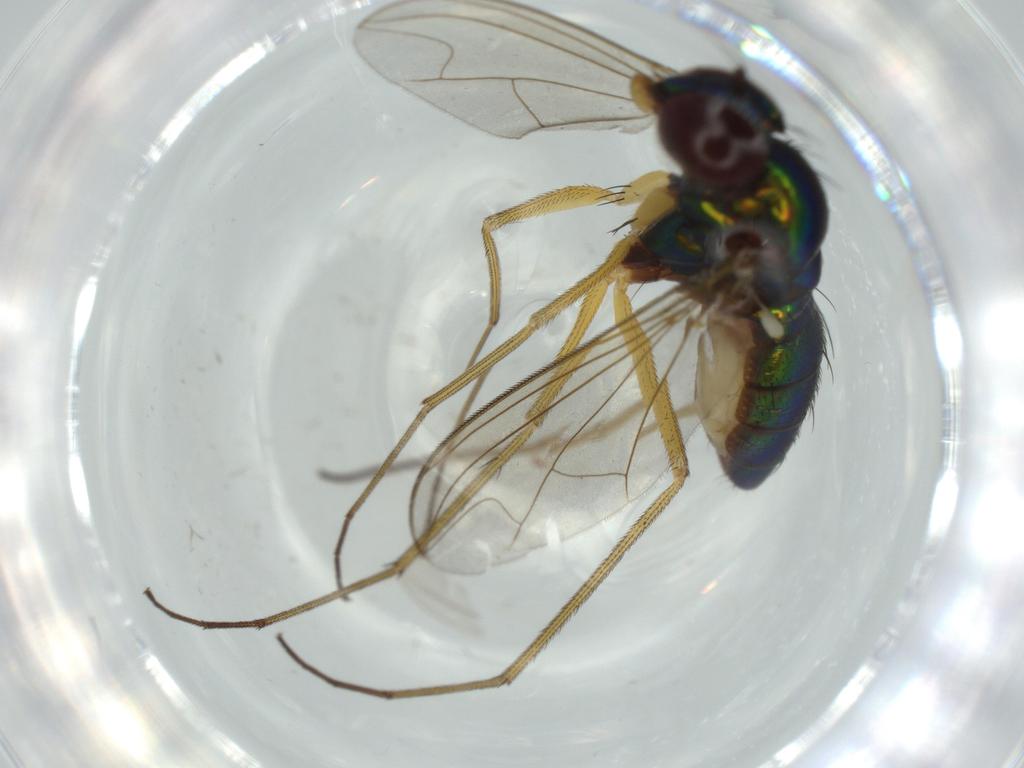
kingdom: Animalia
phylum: Arthropoda
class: Insecta
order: Diptera
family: Dolichopodidae
